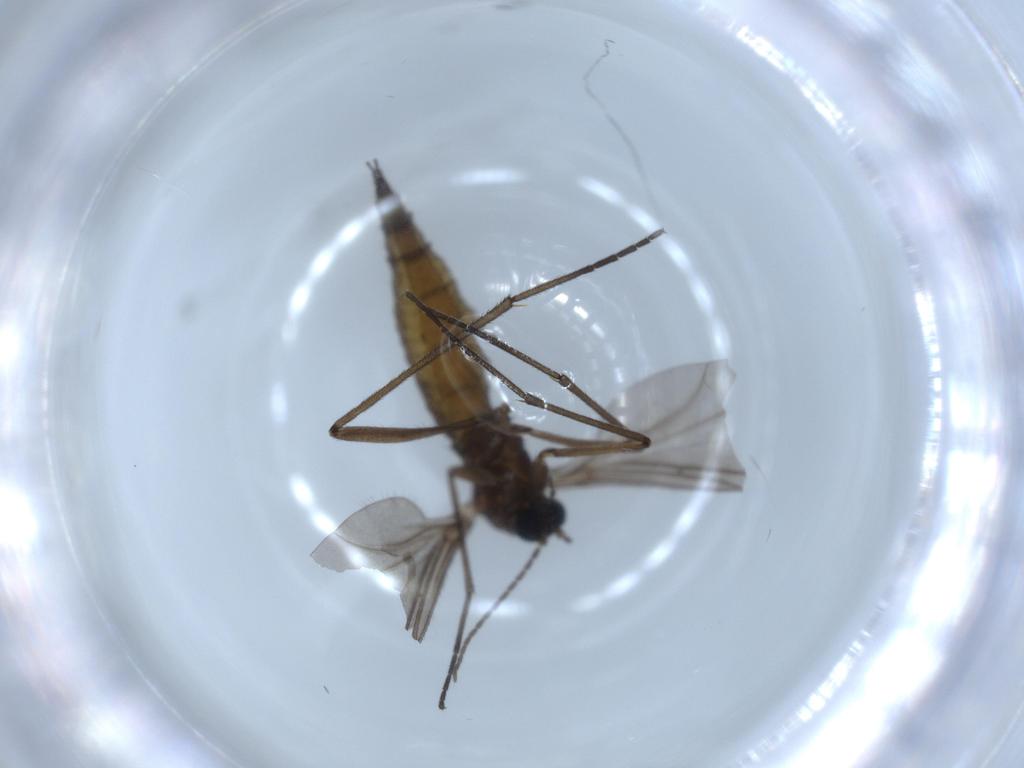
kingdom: Animalia
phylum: Arthropoda
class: Insecta
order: Diptera
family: Sciaridae
